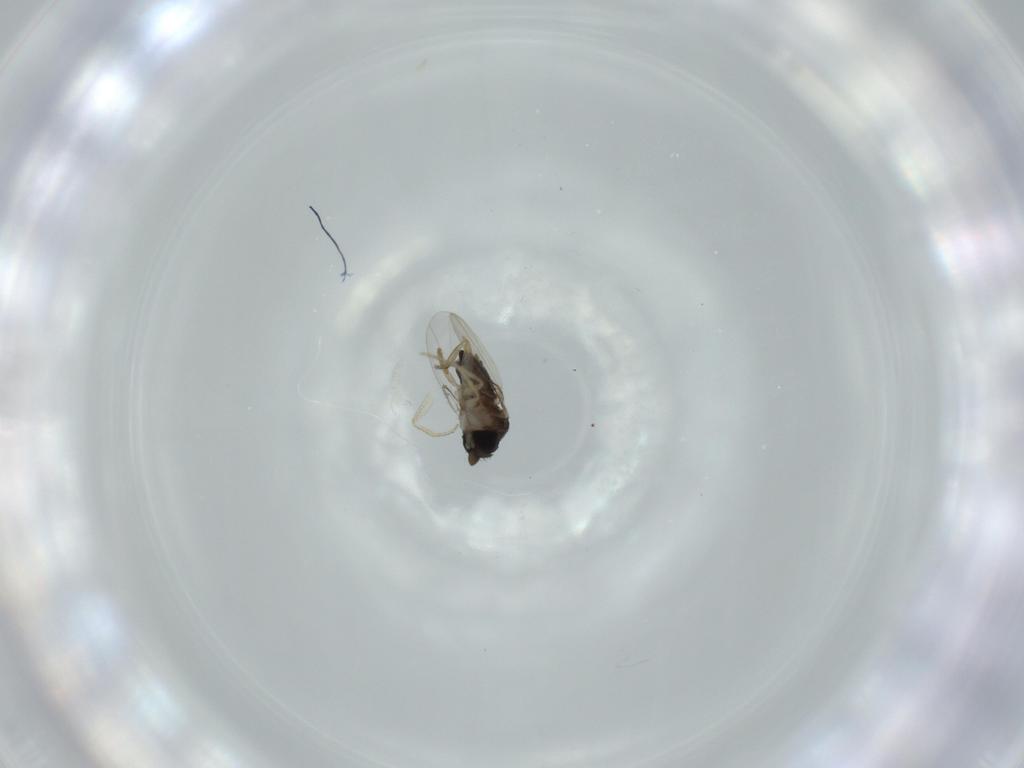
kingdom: Animalia
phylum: Arthropoda
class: Insecta
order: Diptera
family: Phoridae
